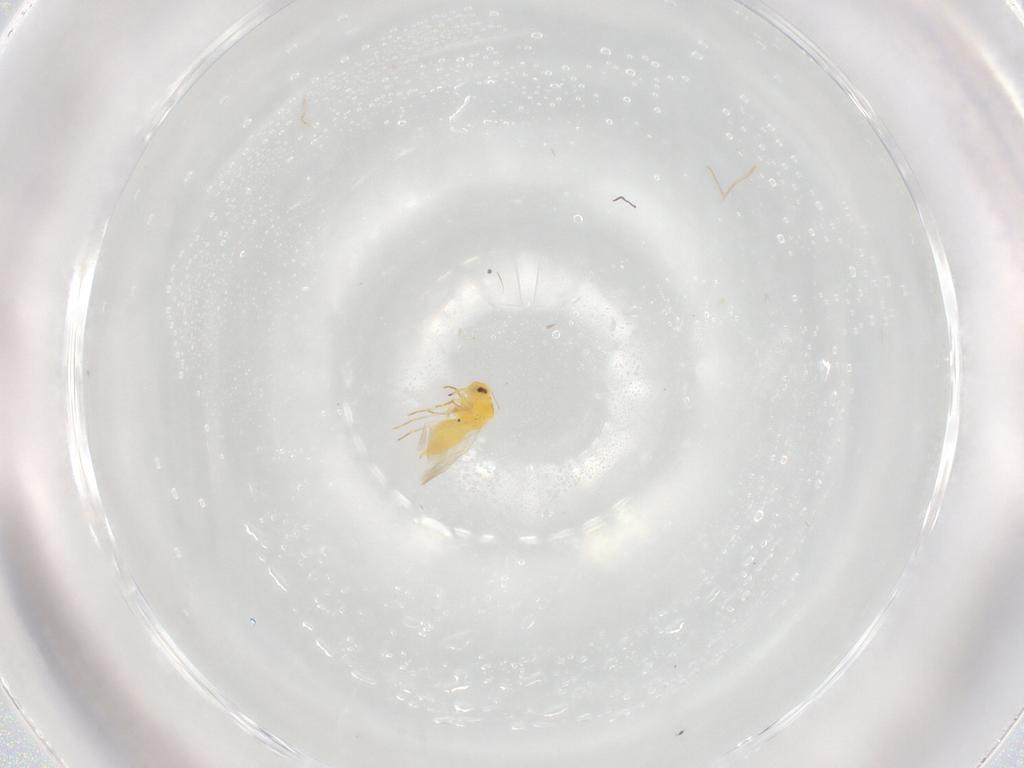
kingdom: Animalia
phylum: Arthropoda
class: Insecta
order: Hemiptera
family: Aleyrodidae
